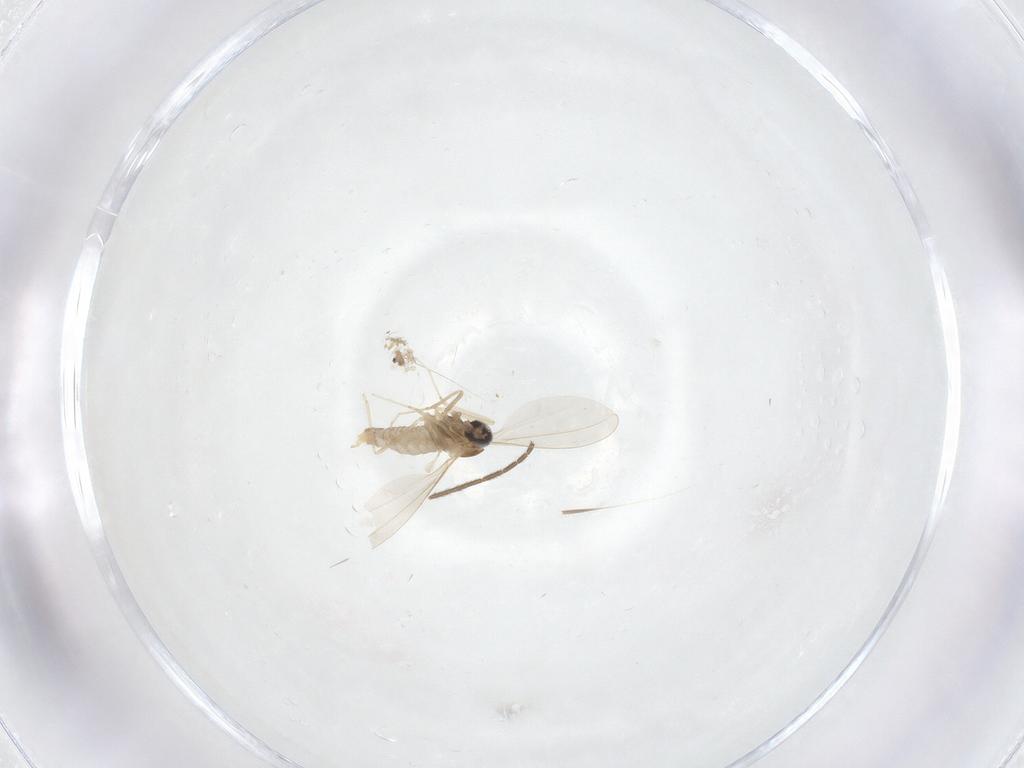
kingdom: Animalia
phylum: Arthropoda
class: Insecta
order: Diptera
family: Cecidomyiidae
